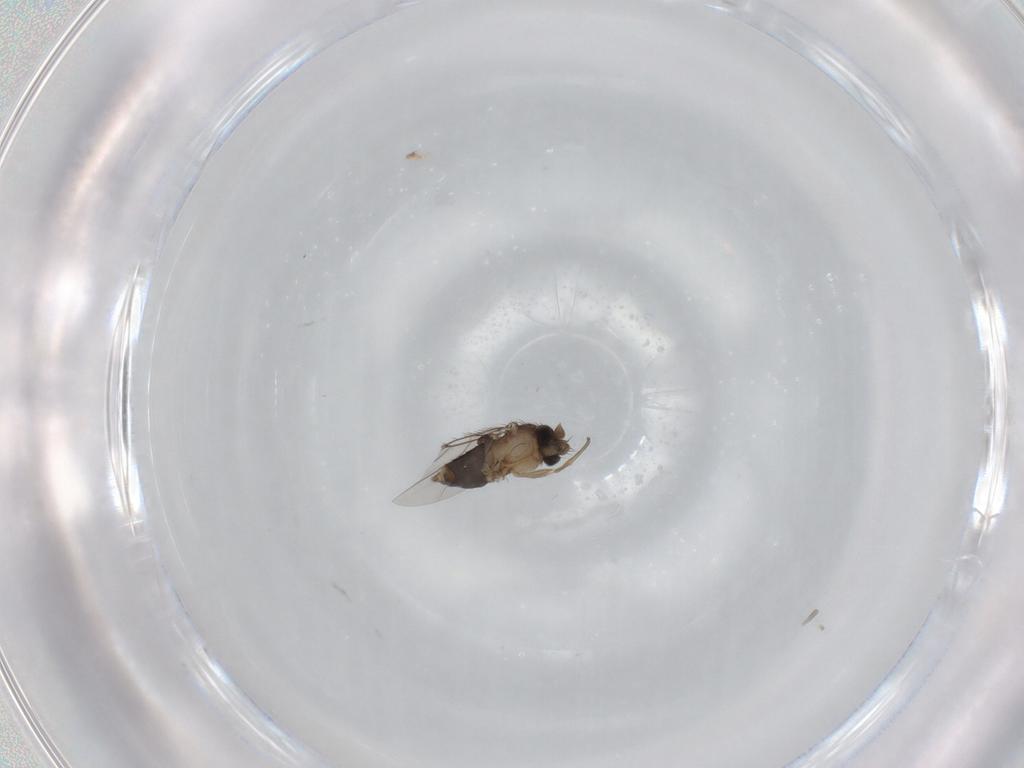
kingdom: Animalia
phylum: Arthropoda
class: Insecta
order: Diptera
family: Phoridae
